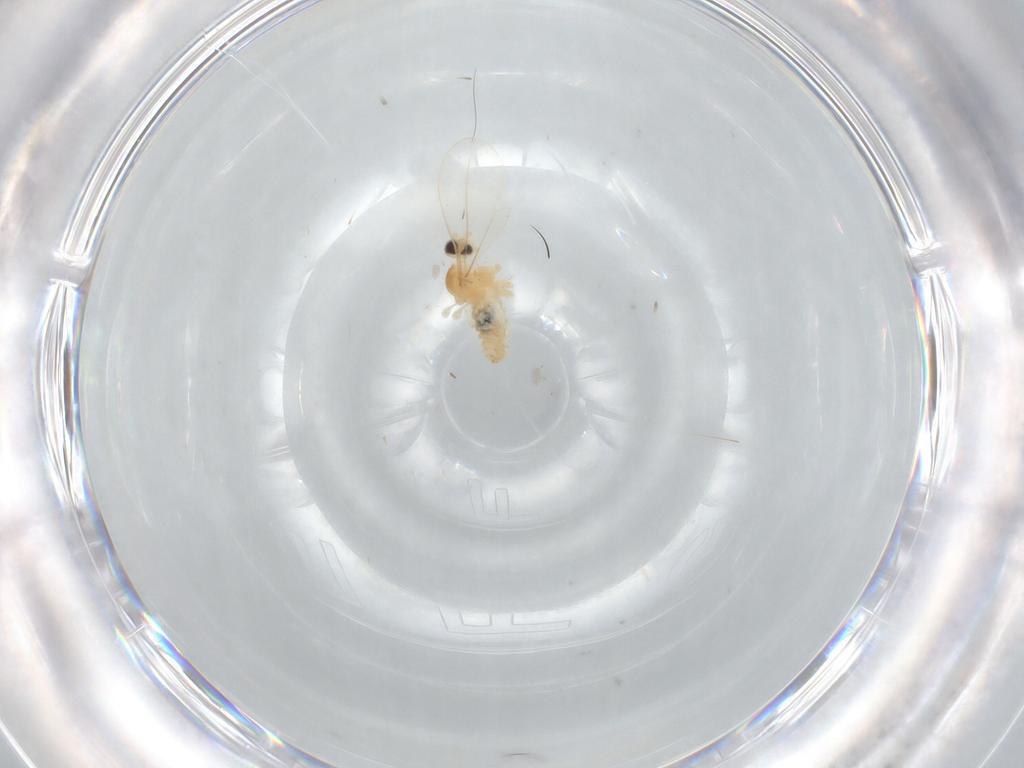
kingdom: Animalia
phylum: Arthropoda
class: Insecta
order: Diptera
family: Cecidomyiidae
